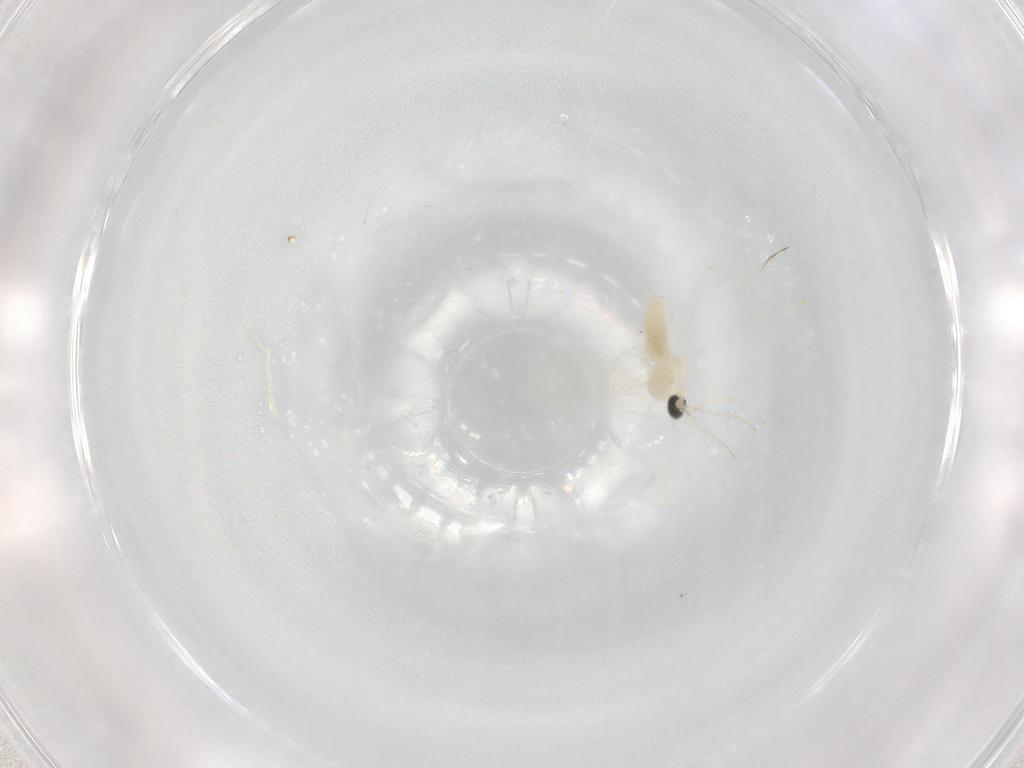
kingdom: Animalia
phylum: Arthropoda
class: Insecta
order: Diptera
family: Cecidomyiidae
